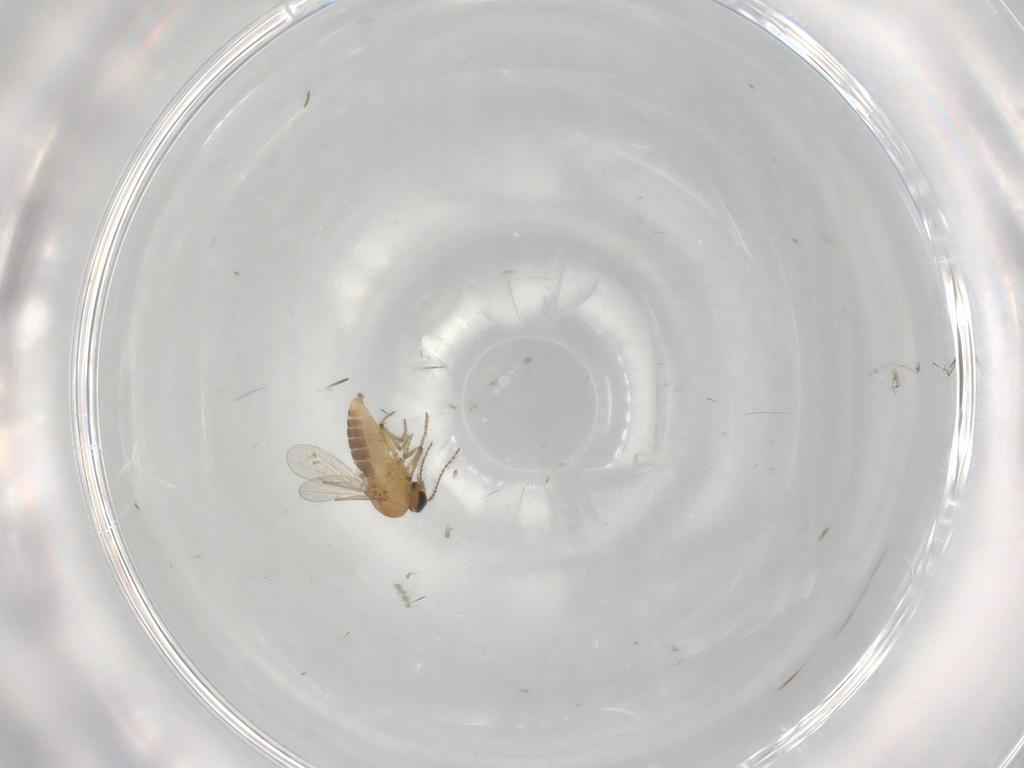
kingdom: Animalia
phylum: Arthropoda
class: Insecta
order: Diptera
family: Ceratopogonidae
